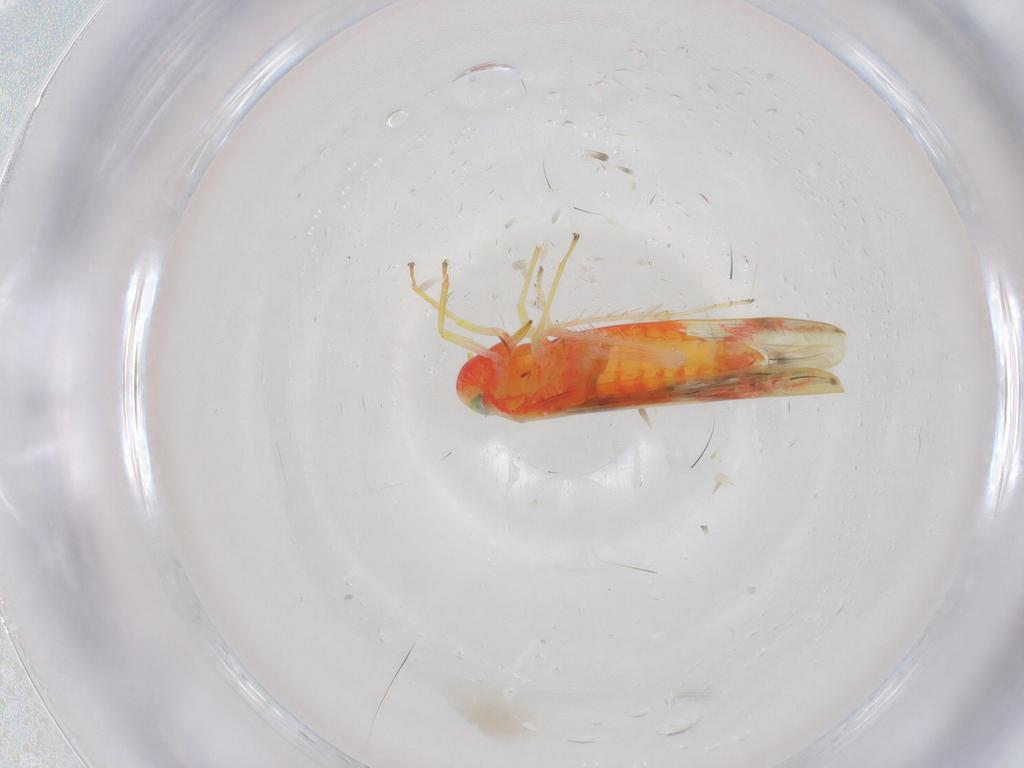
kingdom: Animalia
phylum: Arthropoda
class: Insecta
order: Hemiptera
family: Cicadellidae
